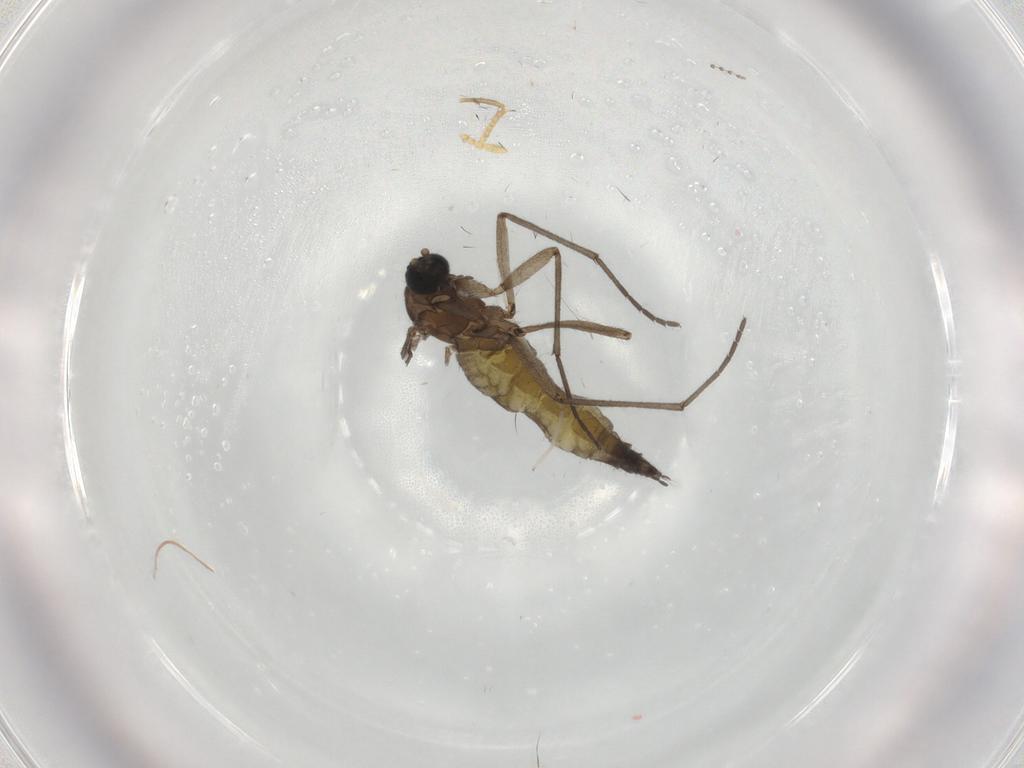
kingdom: Animalia
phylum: Arthropoda
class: Insecta
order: Diptera
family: Sciaridae
